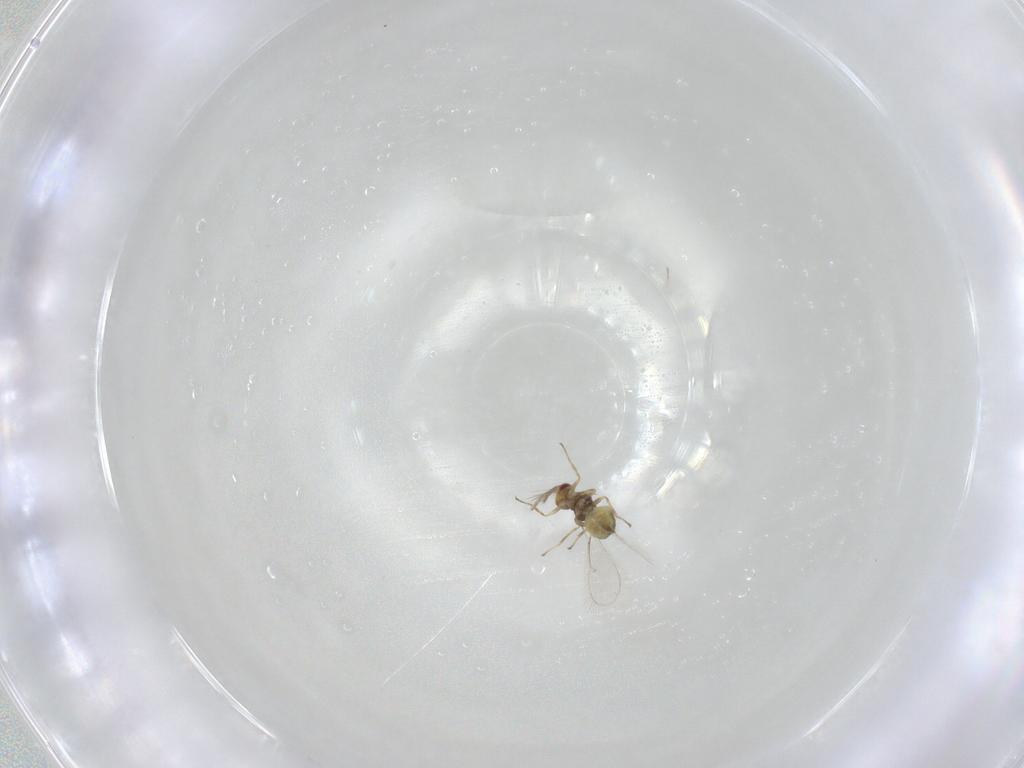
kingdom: Animalia
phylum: Arthropoda
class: Insecta
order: Hymenoptera
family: Eulophidae
